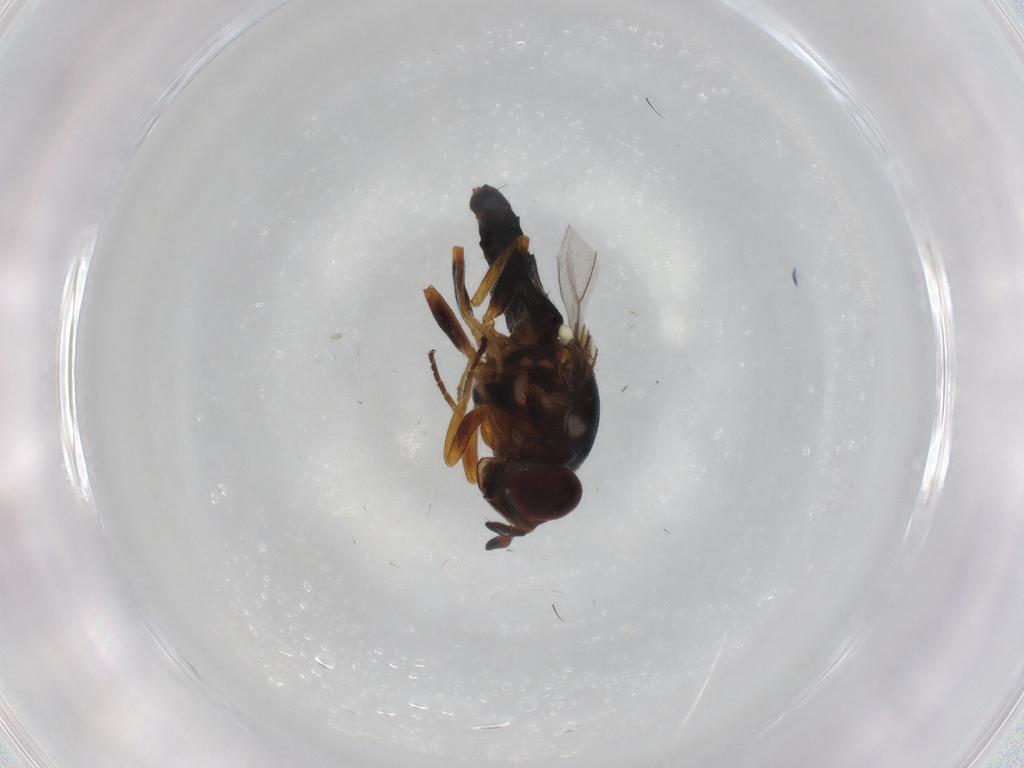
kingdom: Animalia
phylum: Arthropoda
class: Insecta
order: Diptera
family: Chloropidae
